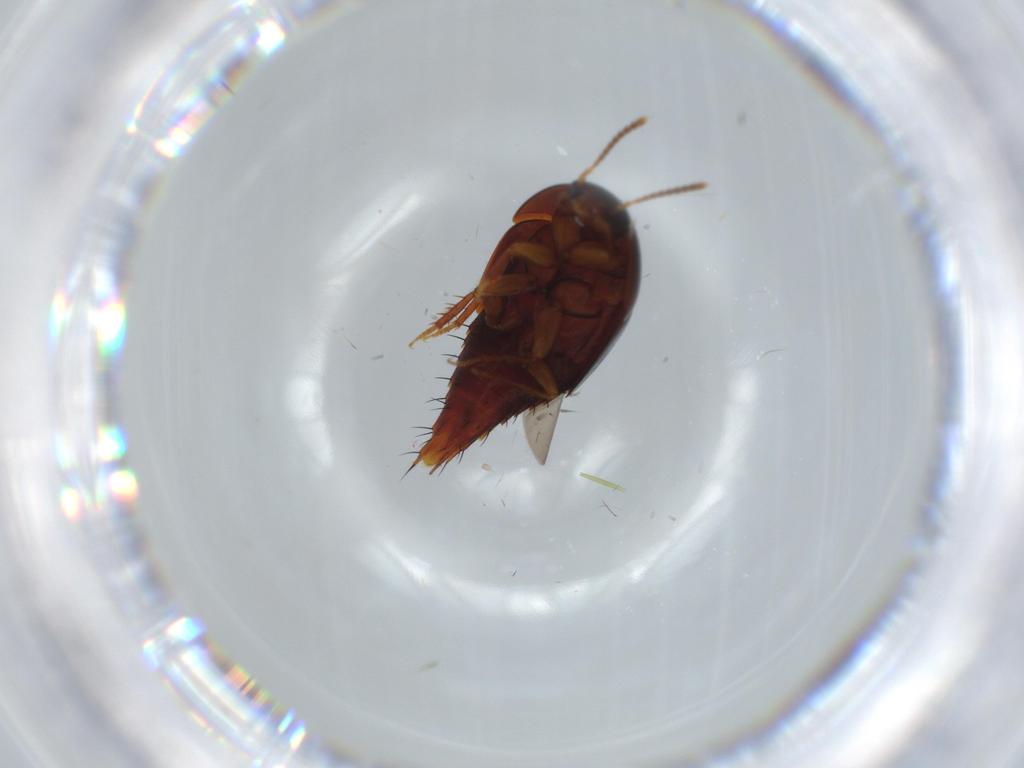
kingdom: Animalia
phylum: Arthropoda
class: Insecta
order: Coleoptera
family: Staphylinidae
